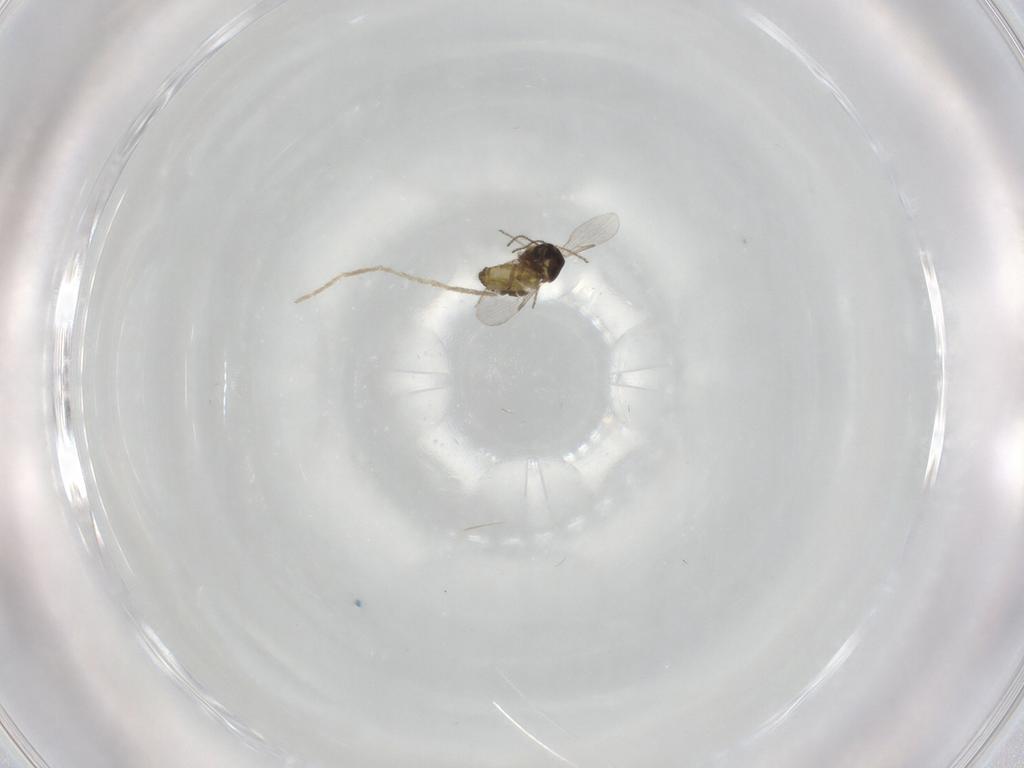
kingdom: Animalia
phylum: Arthropoda
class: Insecta
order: Diptera
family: Ceratopogonidae
